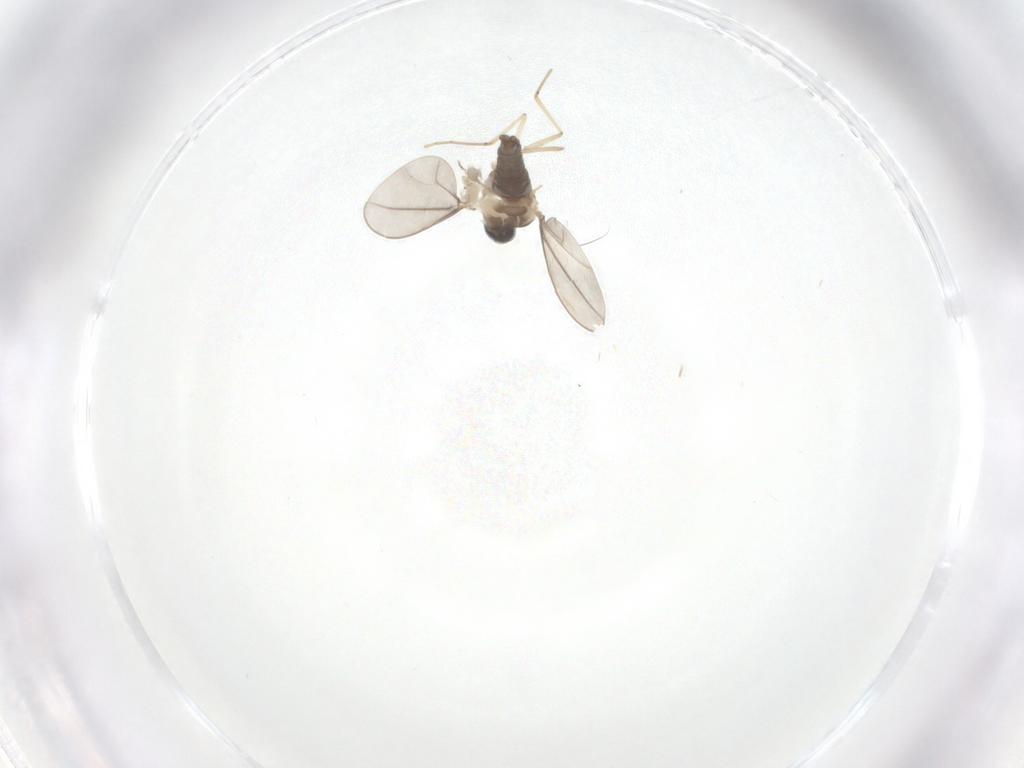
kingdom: Animalia
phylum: Arthropoda
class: Insecta
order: Diptera
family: Cecidomyiidae
